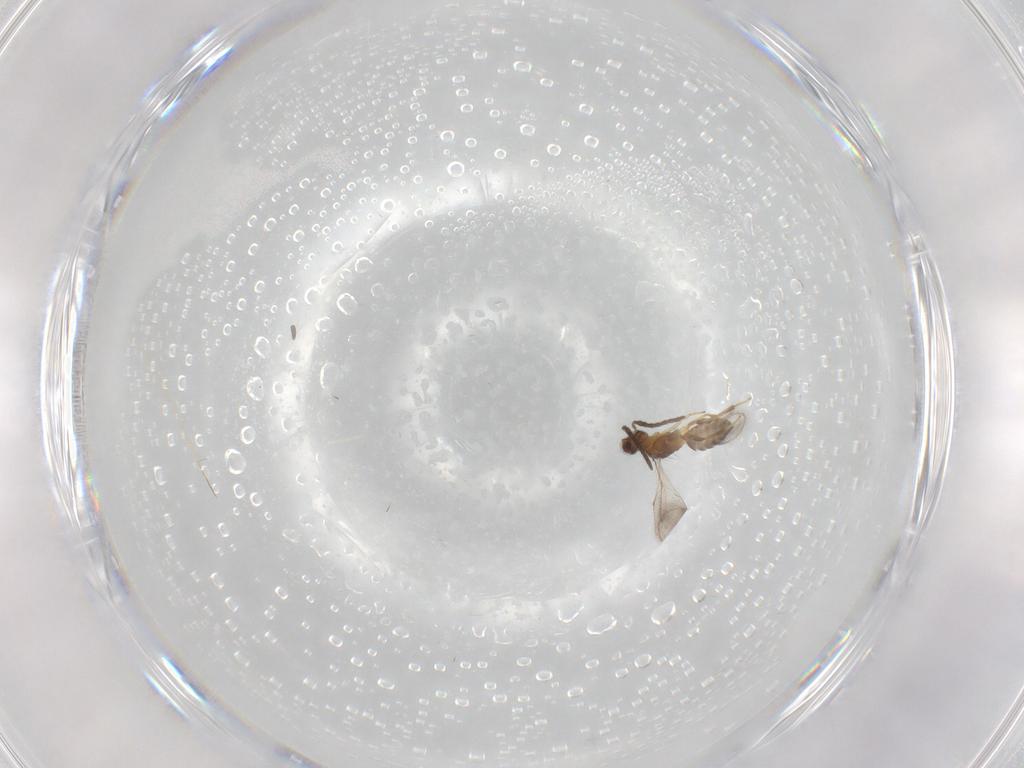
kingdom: Animalia
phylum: Arthropoda
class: Insecta
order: Hymenoptera
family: Pteromalidae
